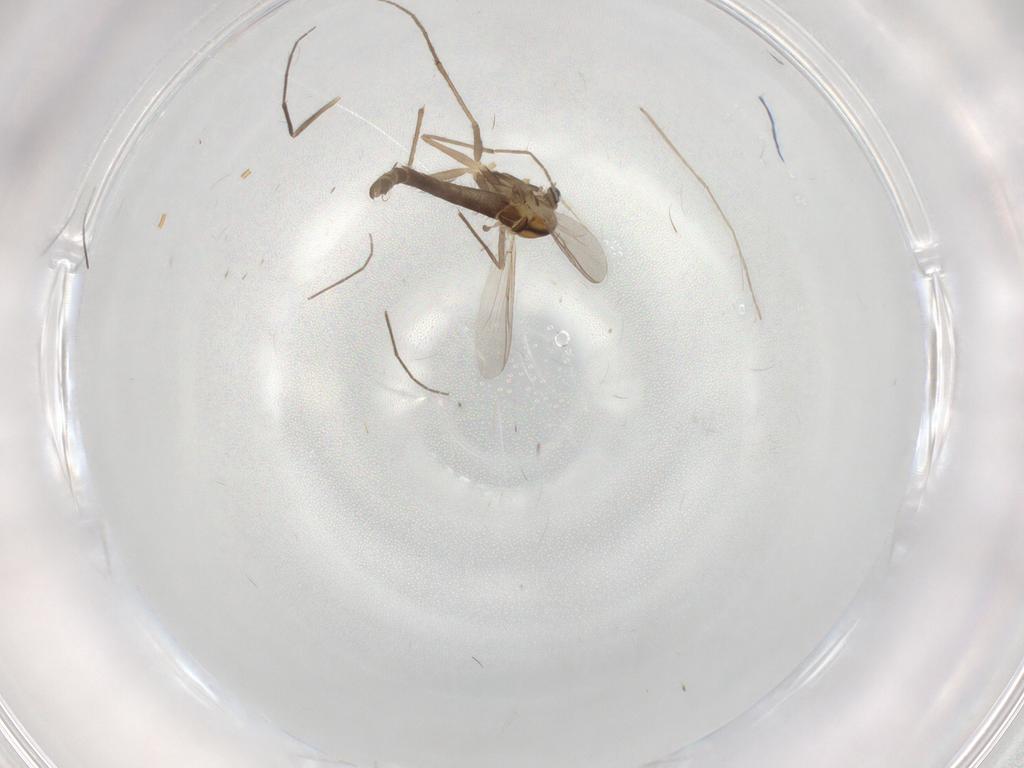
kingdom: Animalia
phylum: Arthropoda
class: Insecta
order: Diptera
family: Chironomidae
